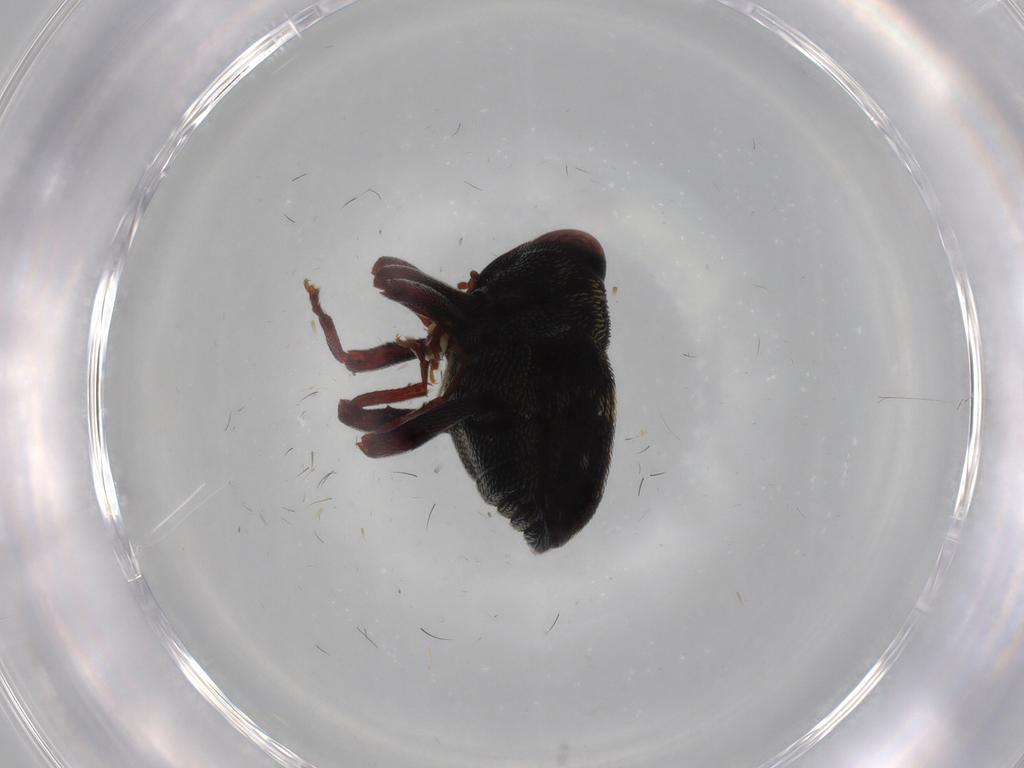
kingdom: Animalia
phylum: Arthropoda
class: Insecta
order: Coleoptera
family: Curculionidae
